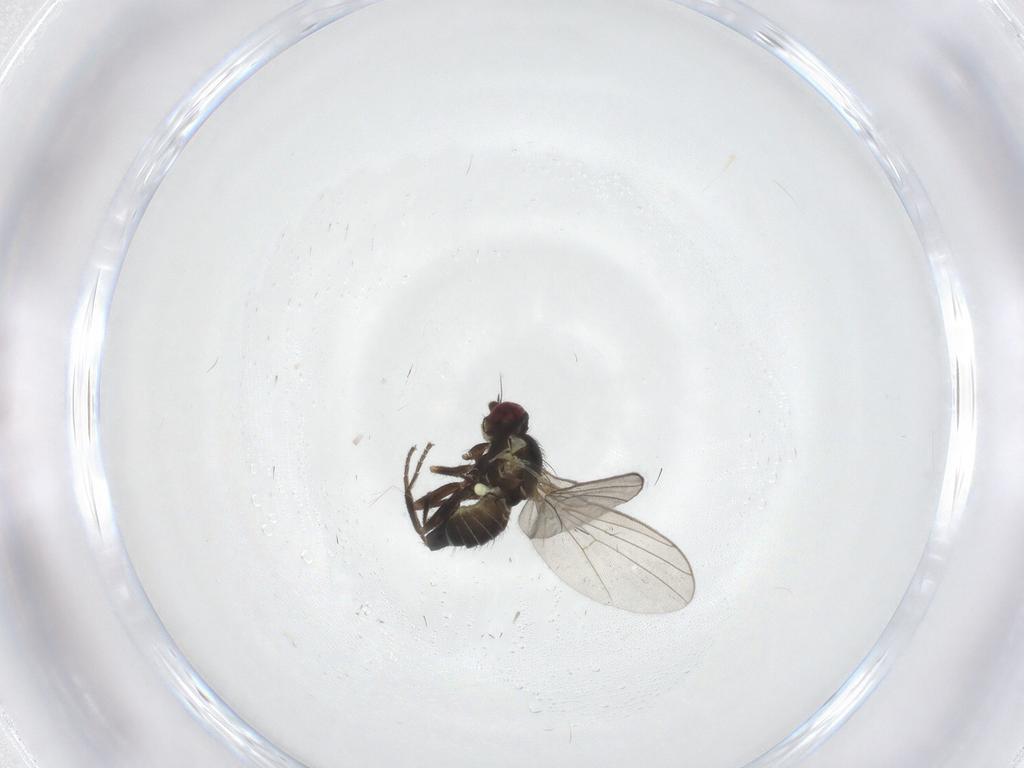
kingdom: Animalia
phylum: Arthropoda
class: Insecta
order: Diptera
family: Agromyzidae
